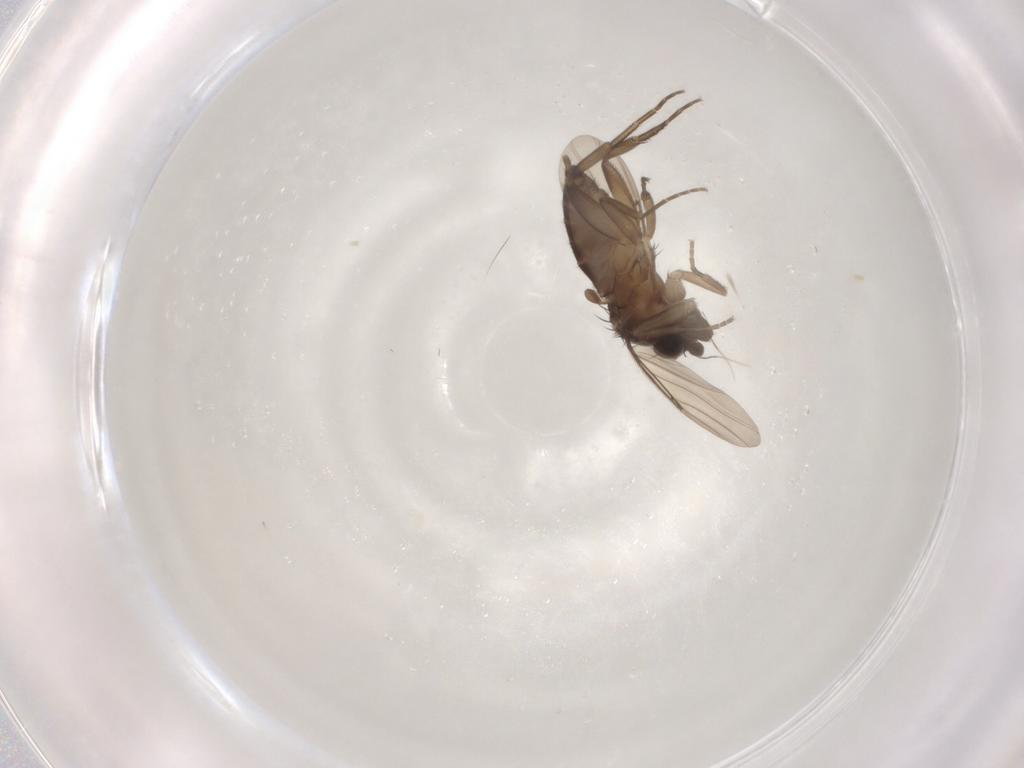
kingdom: Animalia
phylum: Arthropoda
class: Insecta
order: Diptera
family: Phoridae
